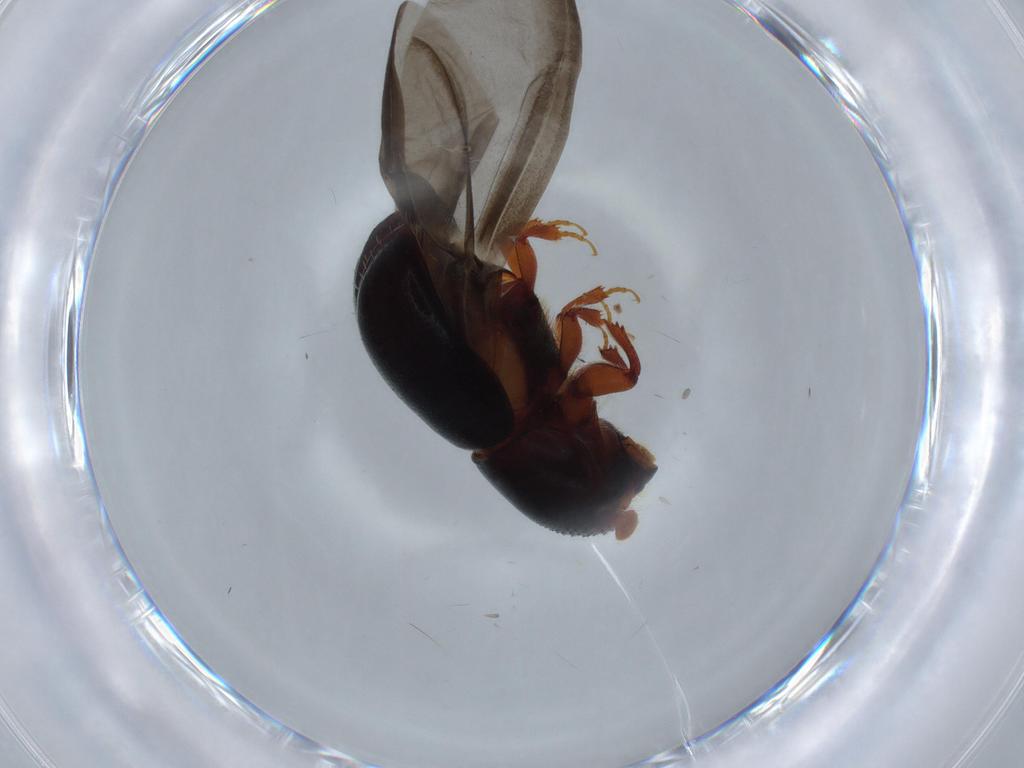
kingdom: Animalia
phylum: Arthropoda
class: Insecta
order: Coleoptera
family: Curculionidae
